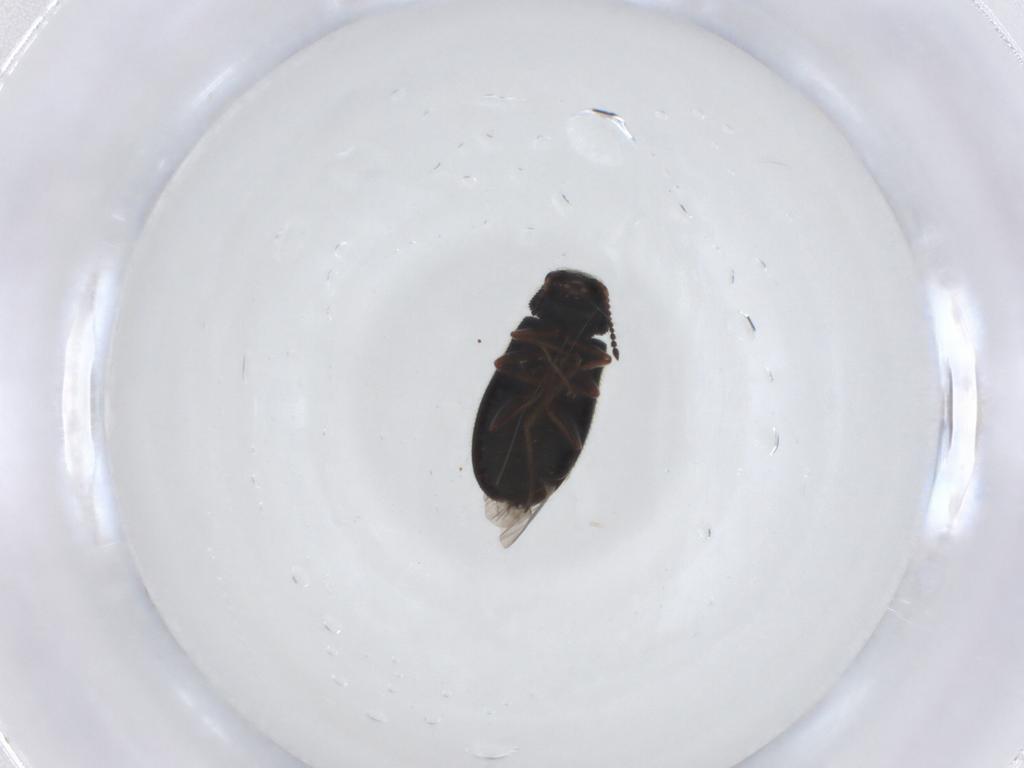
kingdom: Animalia
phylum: Arthropoda
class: Insecta
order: Coleoptera
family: Melyridae
